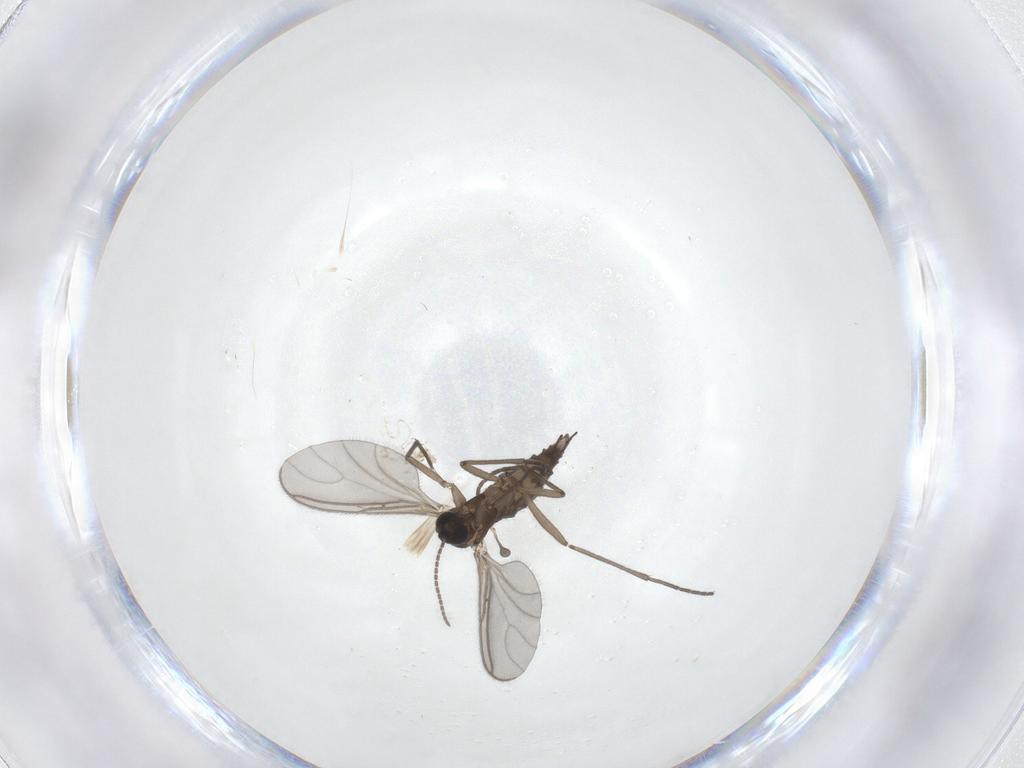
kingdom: Animalia
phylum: Arthropoda
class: Insecta
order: Diptera
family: Sciaridae
